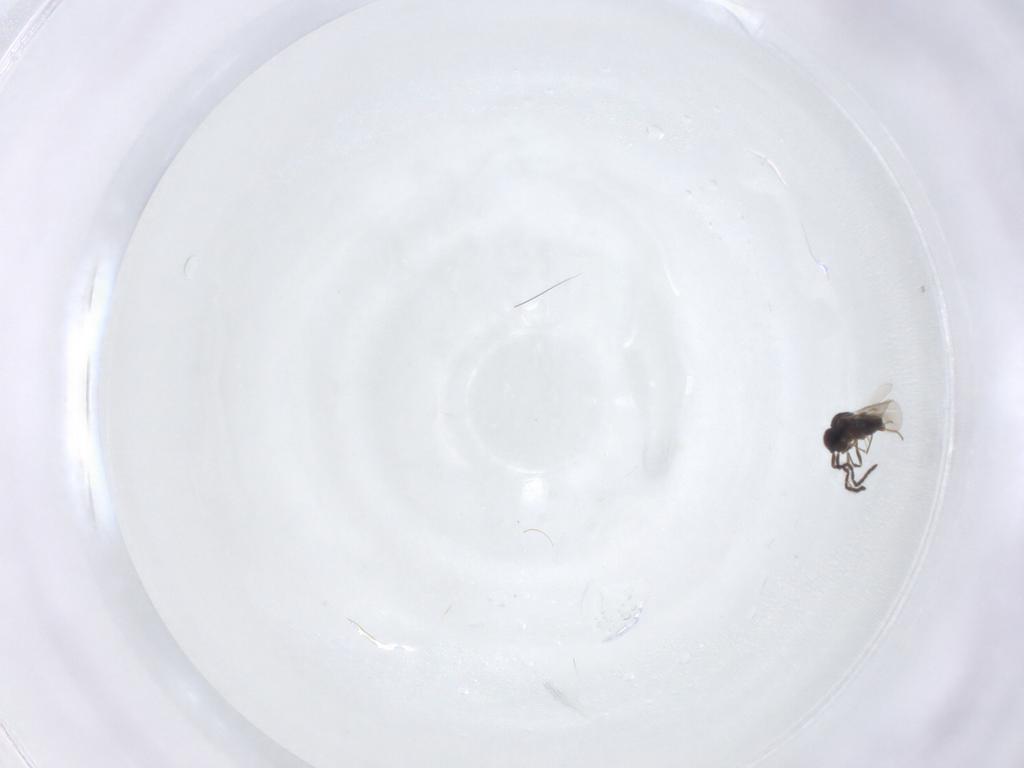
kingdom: Animalia
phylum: Arthropoda
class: Insecta
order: Hymenoptera
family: Megaspilidae
